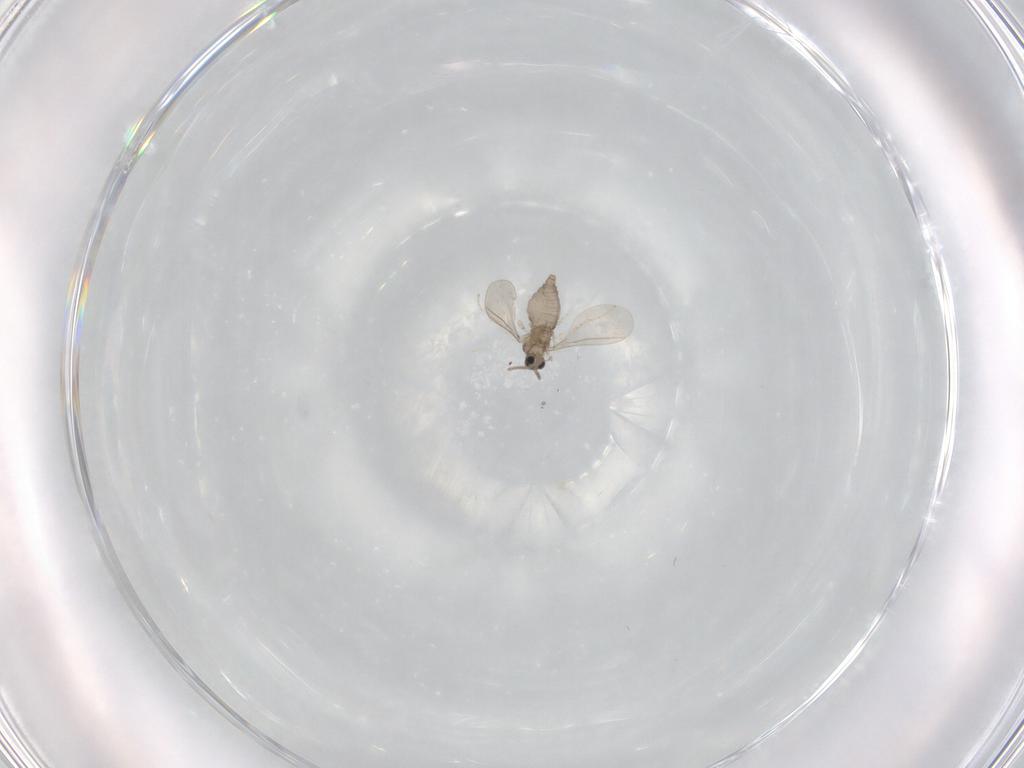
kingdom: Animalia
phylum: Arthropoda
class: Insecta
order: Diptera
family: Cecidomyiidae
